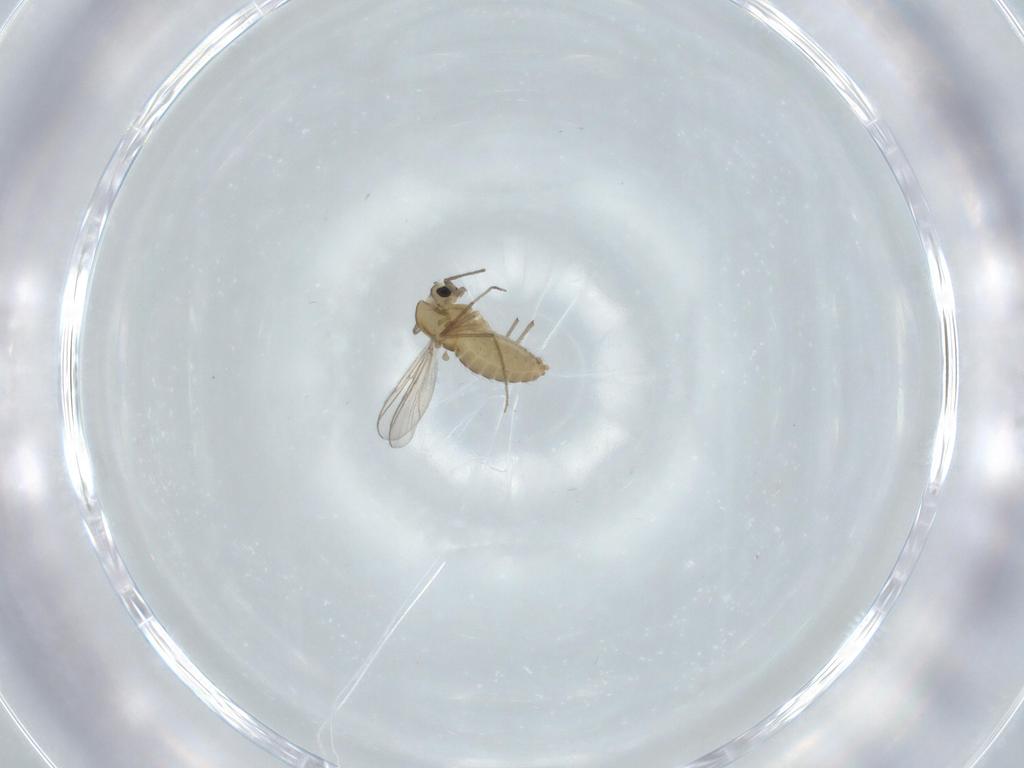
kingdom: Animalia
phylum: Arthropoda
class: Insecta
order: Diptera
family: Chironomidae
